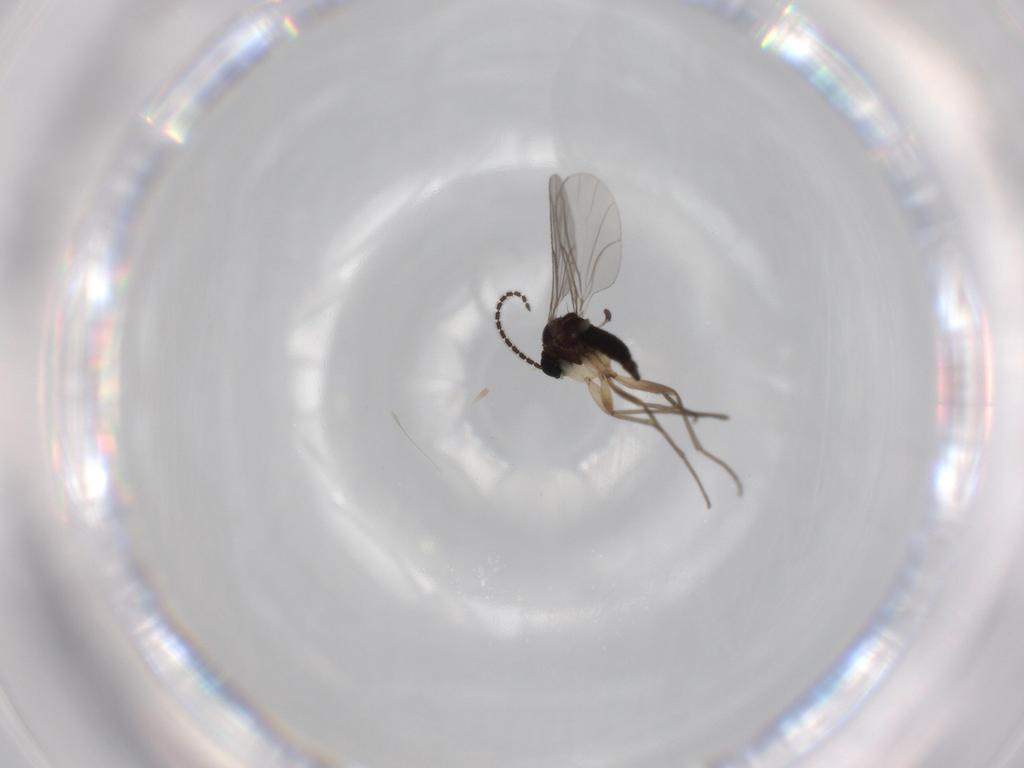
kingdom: Animalia
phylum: Arthropoda
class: Insecta
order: Diptera
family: Sciaridae
